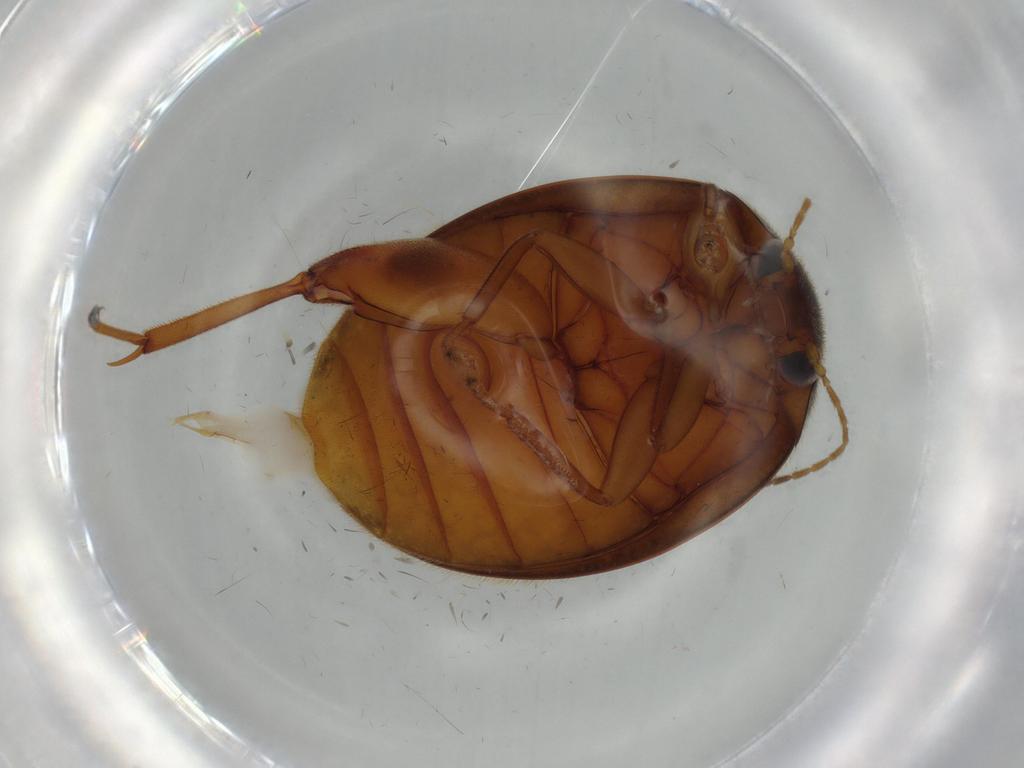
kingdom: Animalia
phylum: Arthropoda
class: Insecta
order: Coleoptera
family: Scirtidae
